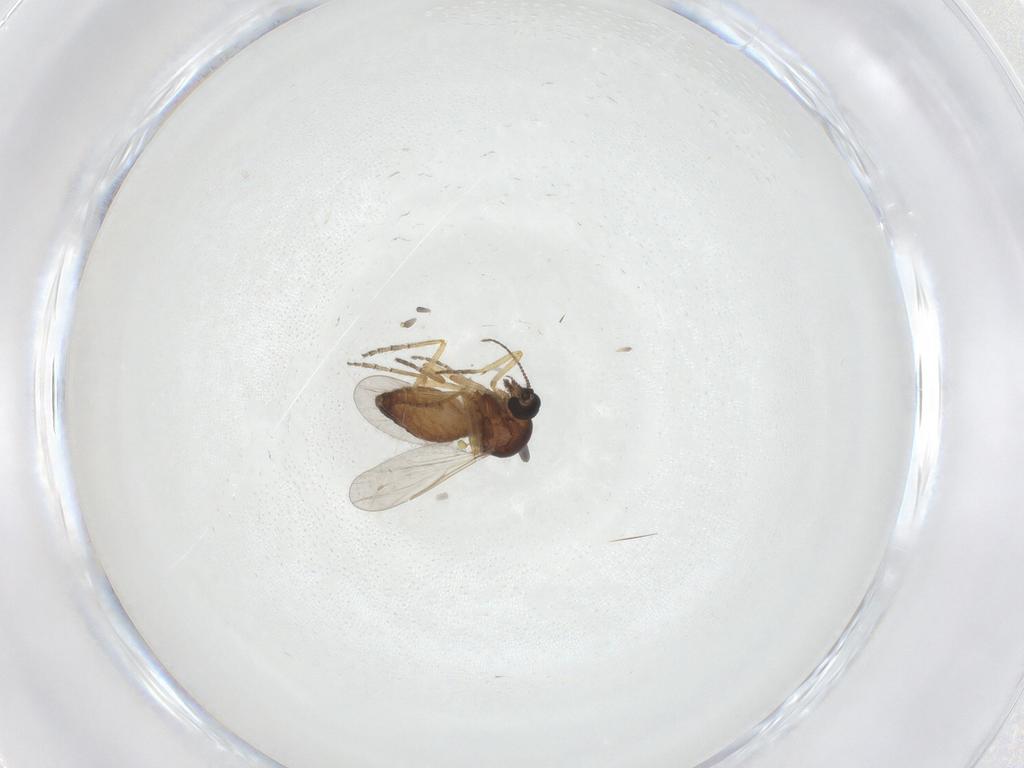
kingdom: Animalia
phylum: Arthropoda
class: Insecta
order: Diptera
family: Ceratopogonidae
